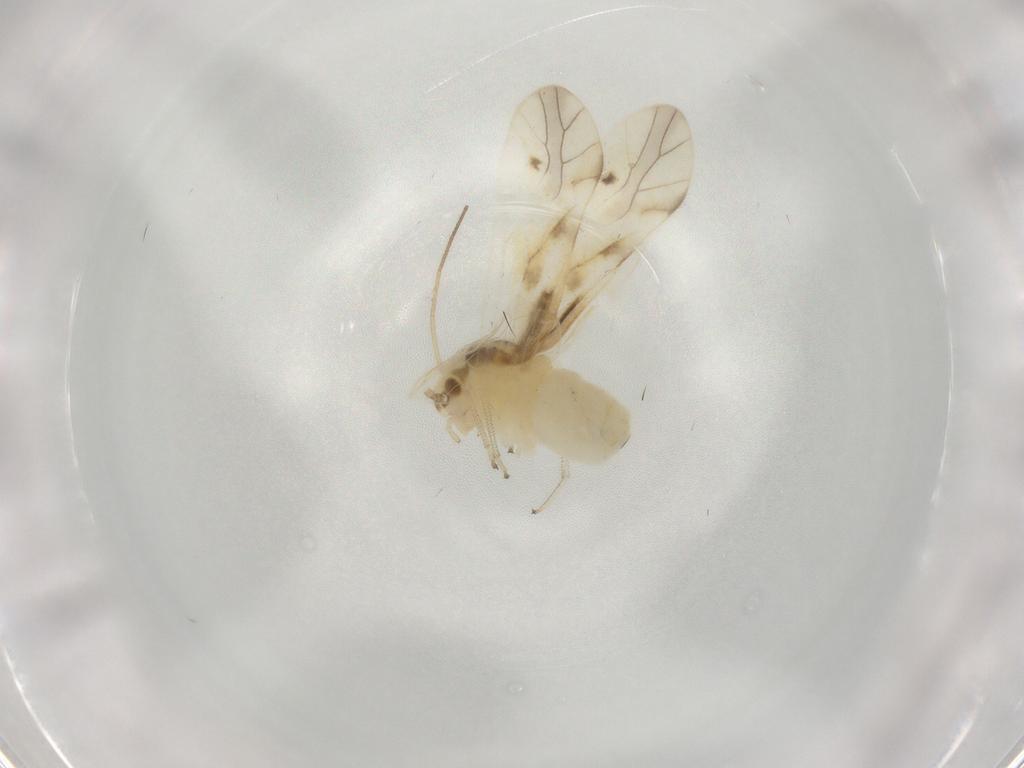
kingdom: Animalia
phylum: Arthropoda
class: Insecta
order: Psocodea
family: Caeciliusidae
